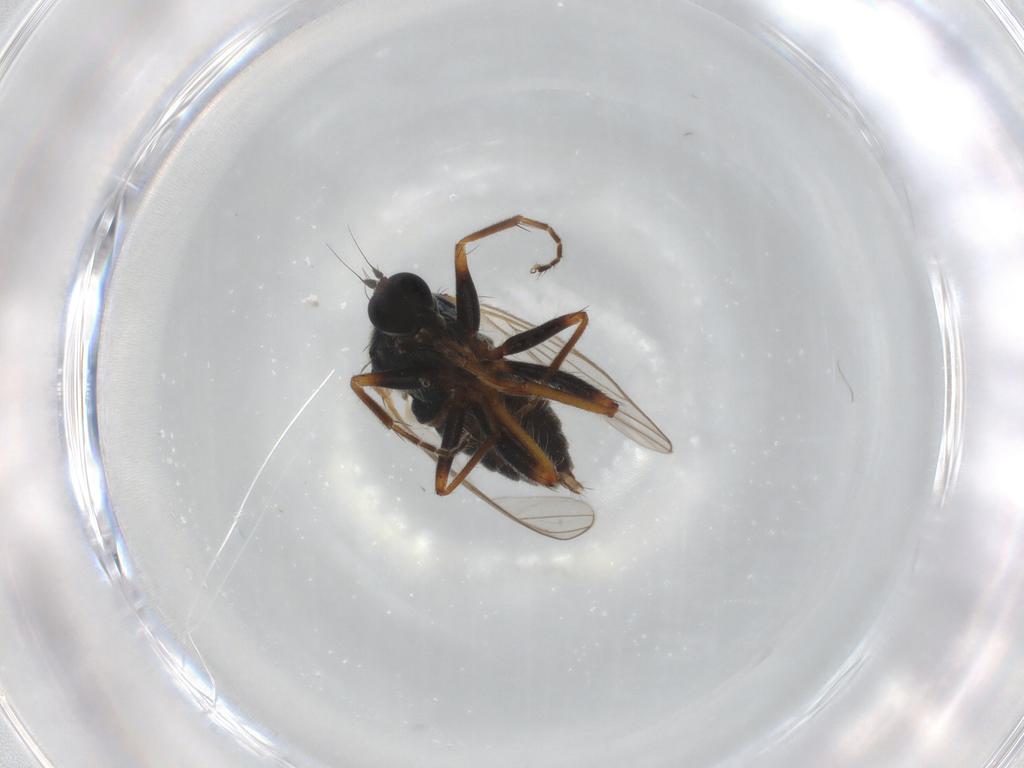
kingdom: Animalia
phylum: Arthropoda
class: Insecta
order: Diptera
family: Hybotidae
